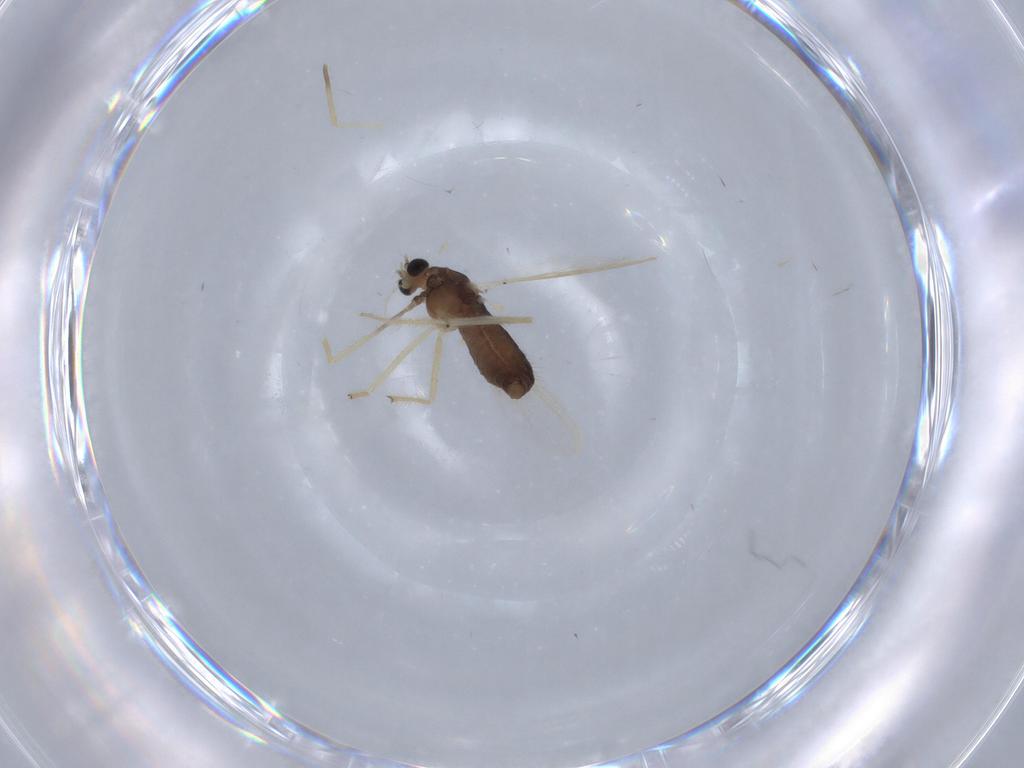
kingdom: Animalia
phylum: Arthropoda
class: Insecta
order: Diptera
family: Chironomidae
